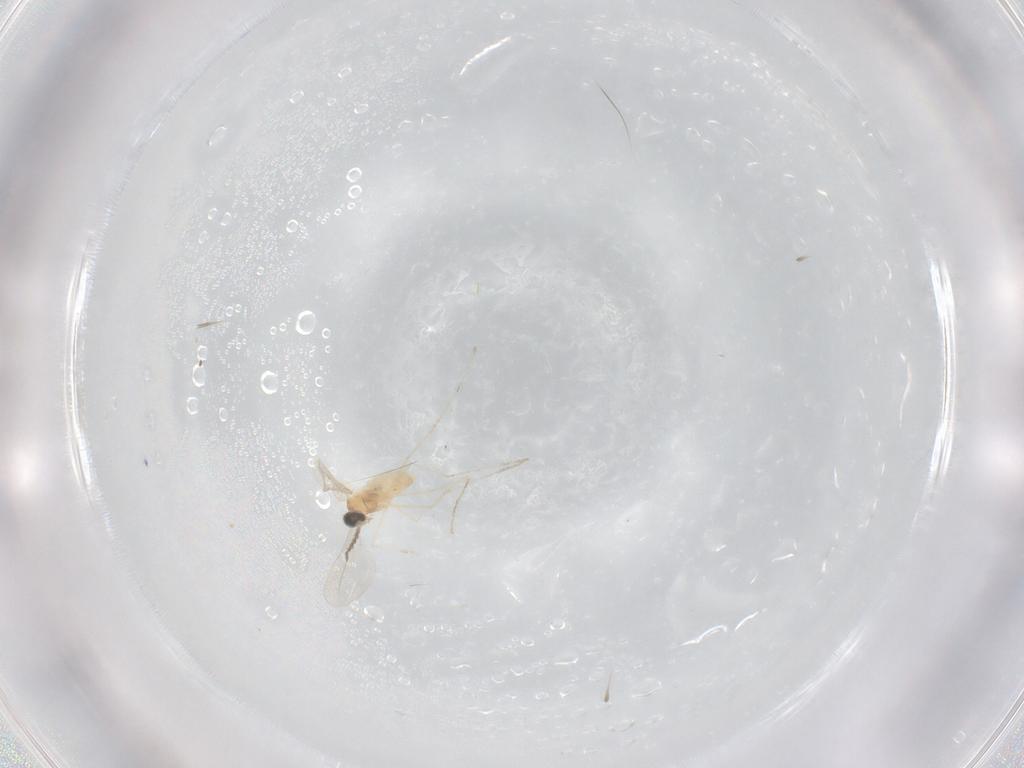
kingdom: Animalia
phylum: Arthropoda
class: Insecta
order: Diptera
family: Cecidomyiidae
